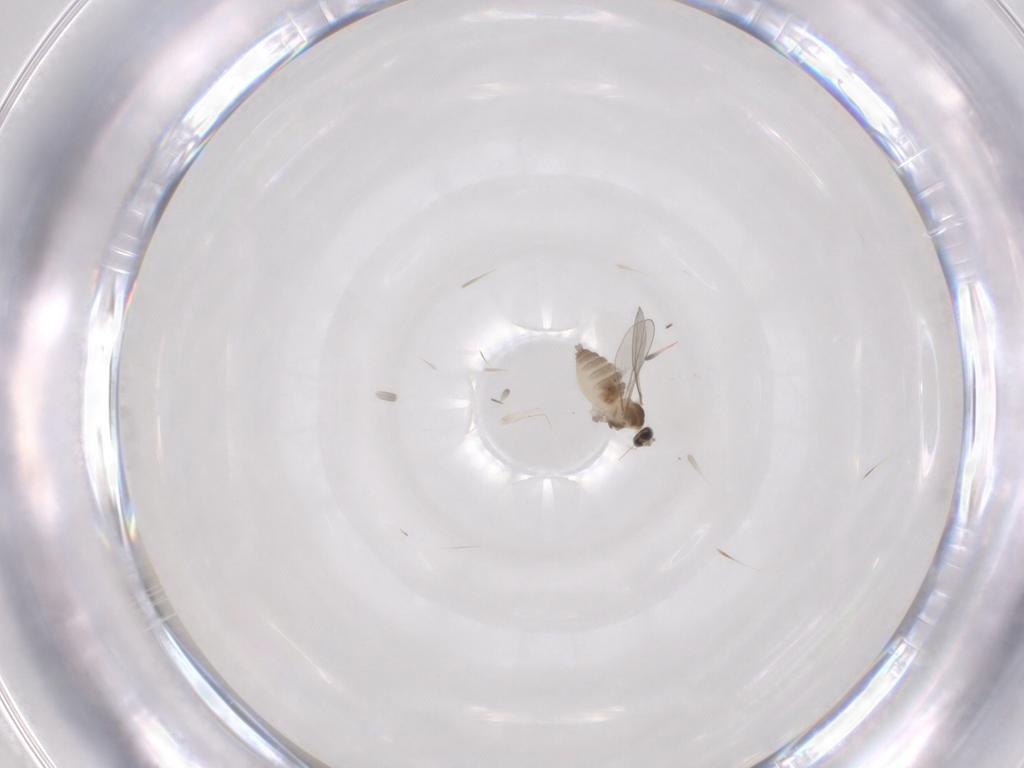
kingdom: Animalia
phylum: Arthropoda
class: Insecta
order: Diptera
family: Cecidomyiidae
